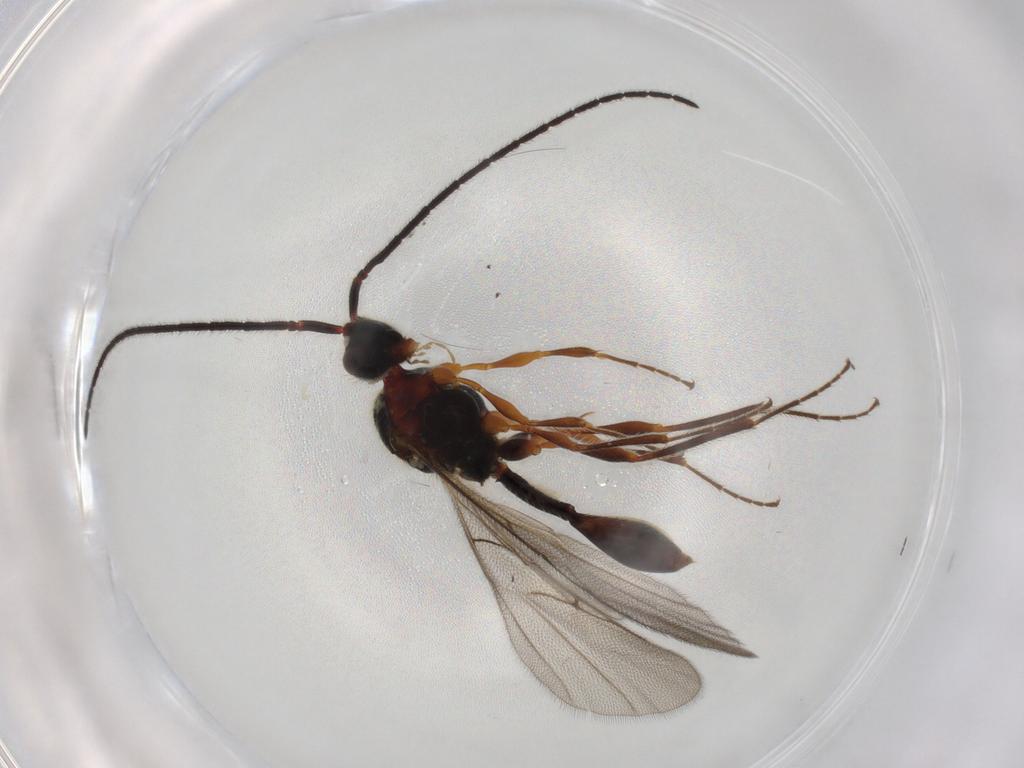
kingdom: Animalia
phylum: Arthropoda
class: Insecta
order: Hymenoptera
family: Diapriidae
